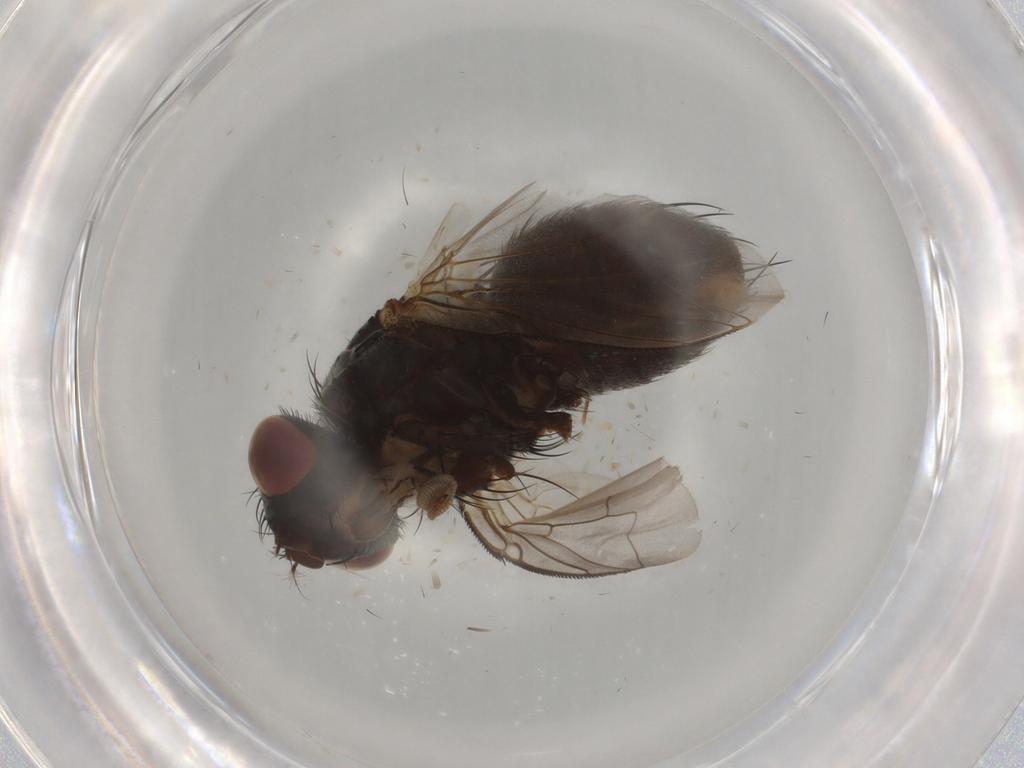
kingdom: Animalia
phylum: Arthropoda
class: Insecta
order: Diptera
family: Sarcophagidae
